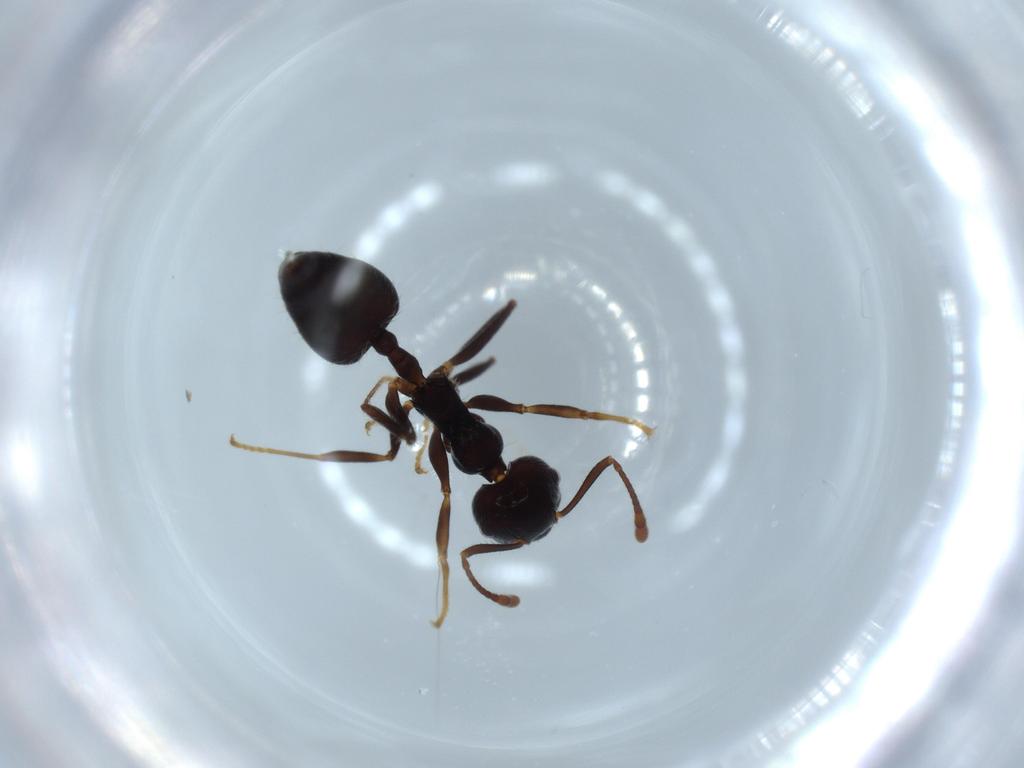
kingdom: Animalia
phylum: Arthropoda
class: Insecta
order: Hymenoptera
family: Formicidae
